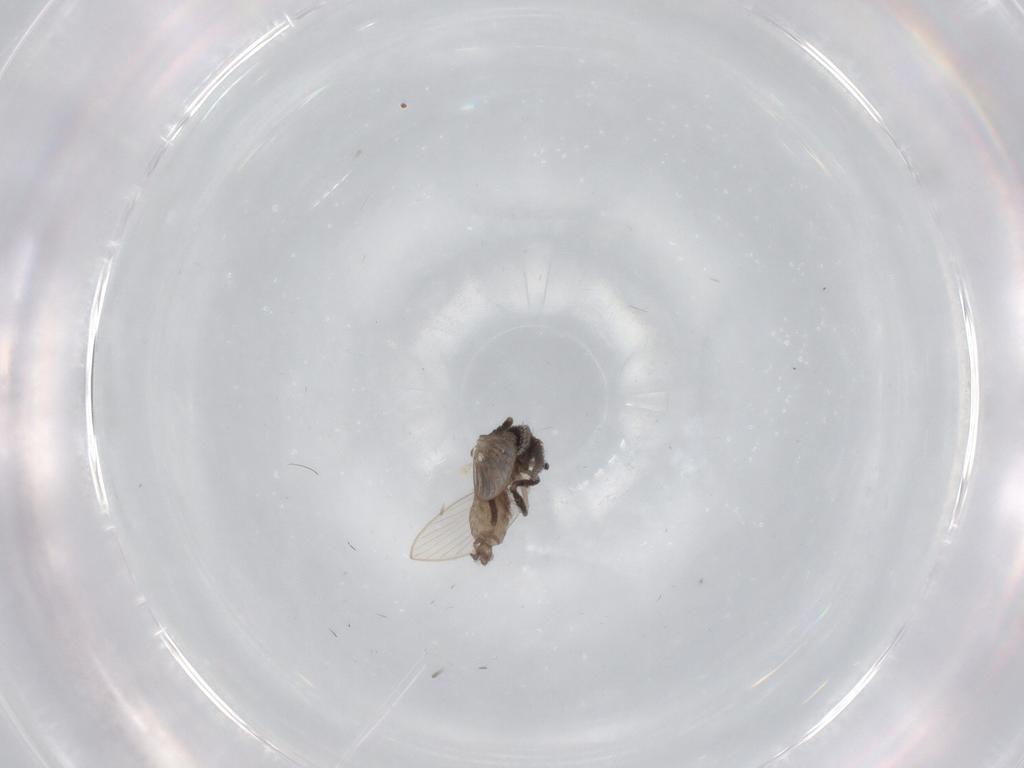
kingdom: Animalia
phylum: Arthropoda
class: Insecta
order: Diptera
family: Psychodidae
